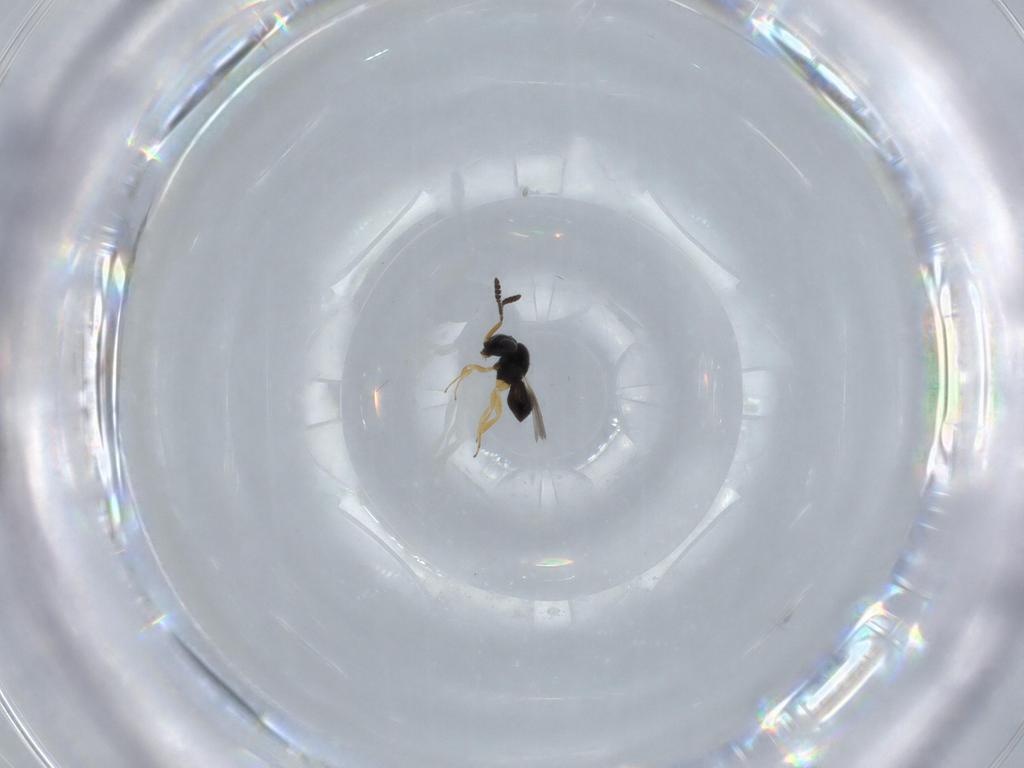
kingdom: Animalia
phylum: Arthropoda
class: Insecta
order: Hymenoptera
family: Scelionidae
